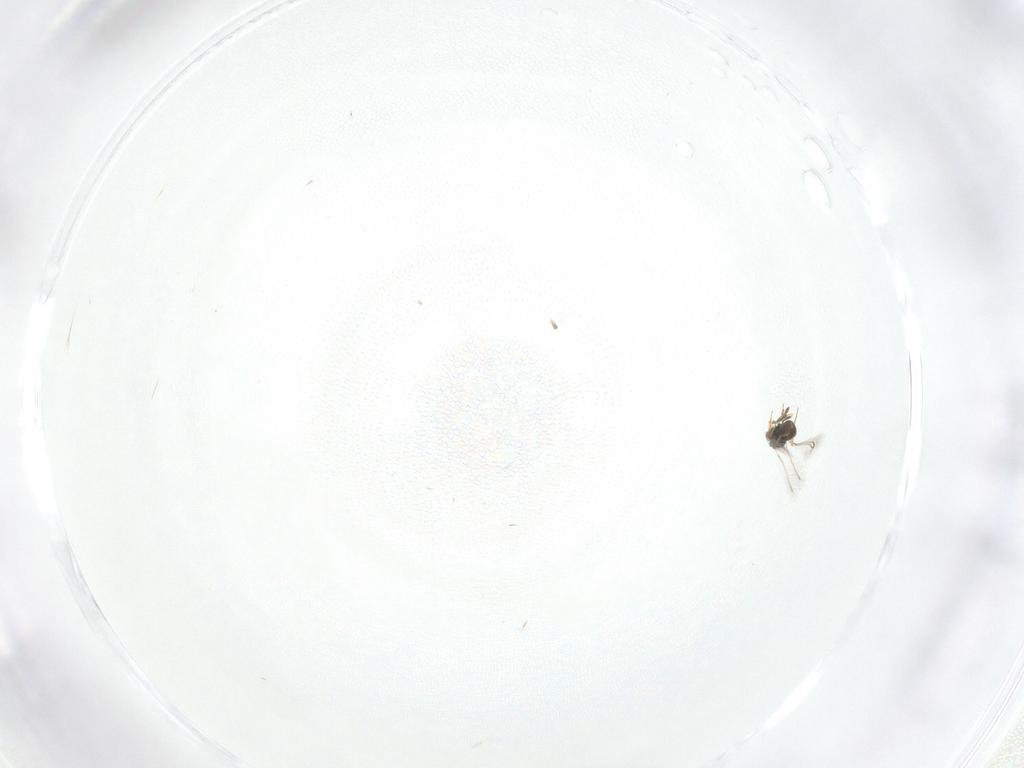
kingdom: Animalia
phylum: Arthropoda
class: Insecta
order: Hymenoptera
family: Mymaridae
